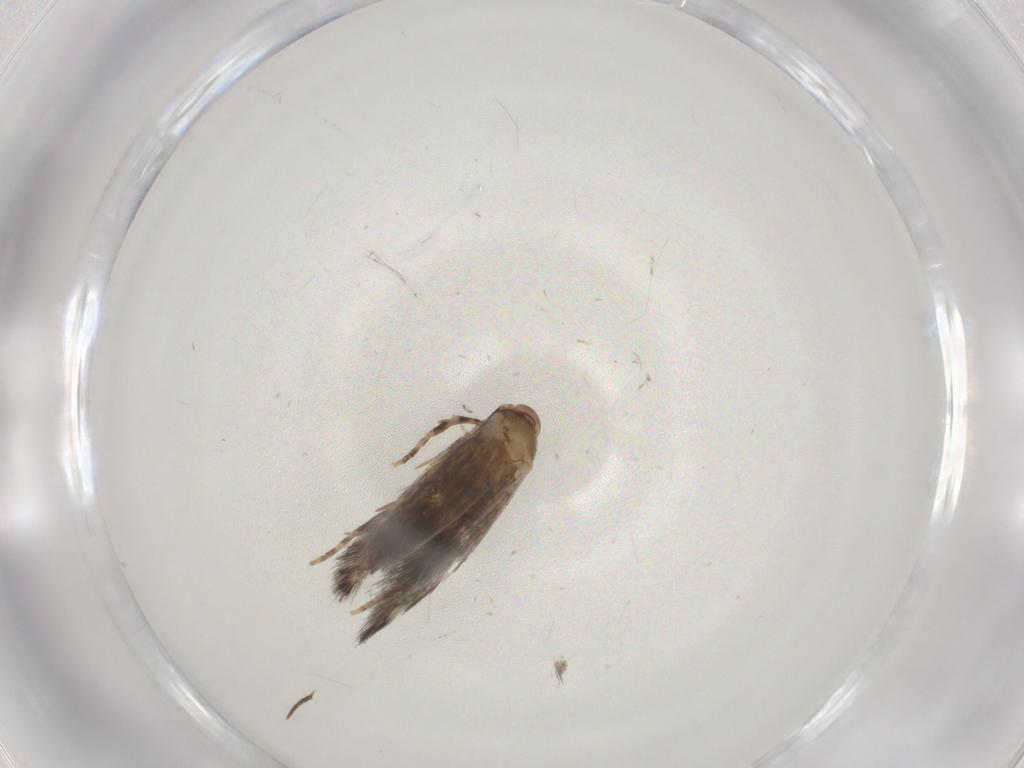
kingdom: Animalia
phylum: Arthropoda
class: Insecta
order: Lepidoptera
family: Elachistidae
